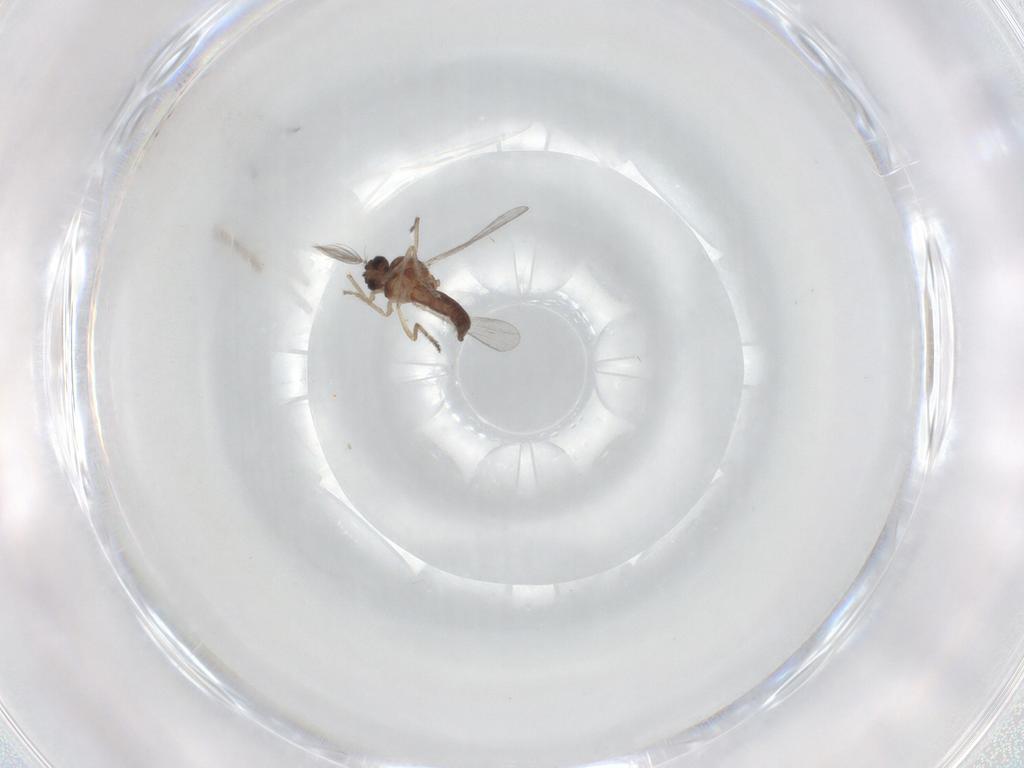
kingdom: Animalia
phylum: Arthropoda
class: Insecta
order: Diptera
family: Ceratopogonidae
